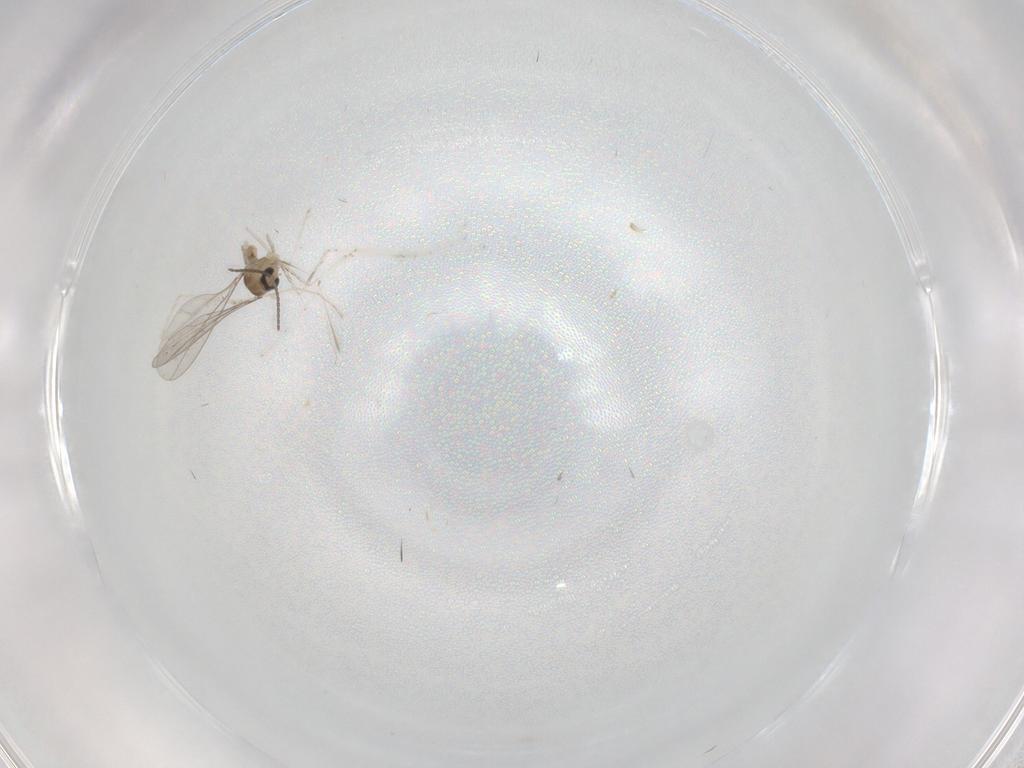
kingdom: Animalia
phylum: Arthropoda
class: Insecta
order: Diptera
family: Cecidomyiidae
